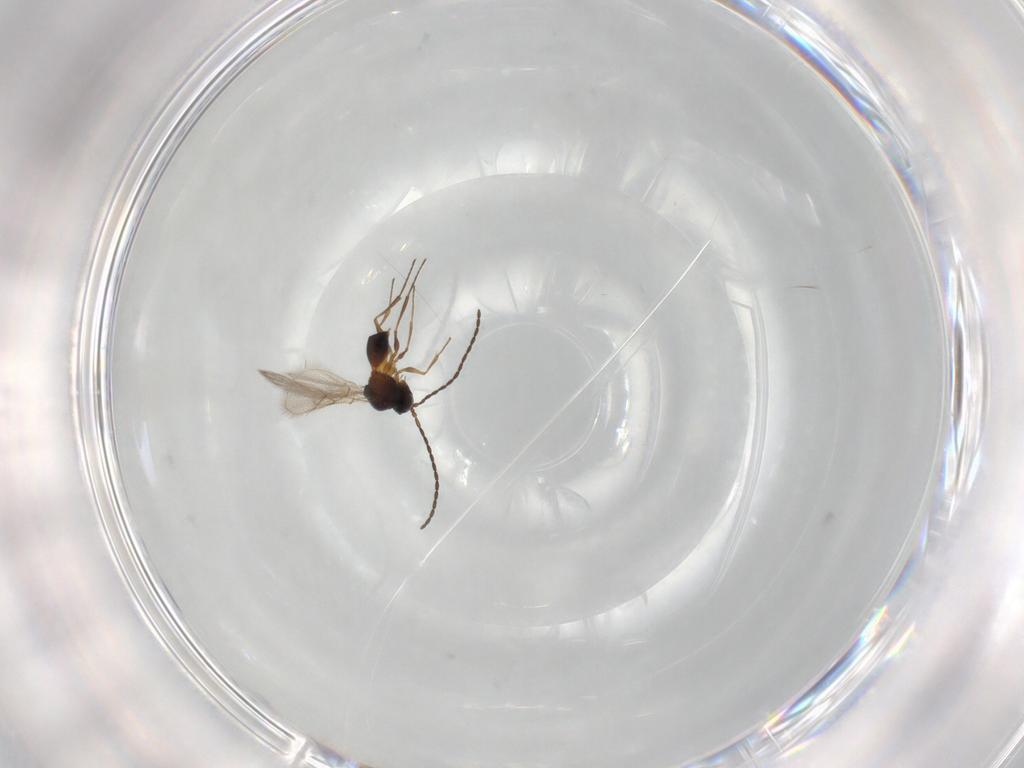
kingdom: Animalia
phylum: Arthropoda
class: Insecta
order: Hymenoptera
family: Figitidae
